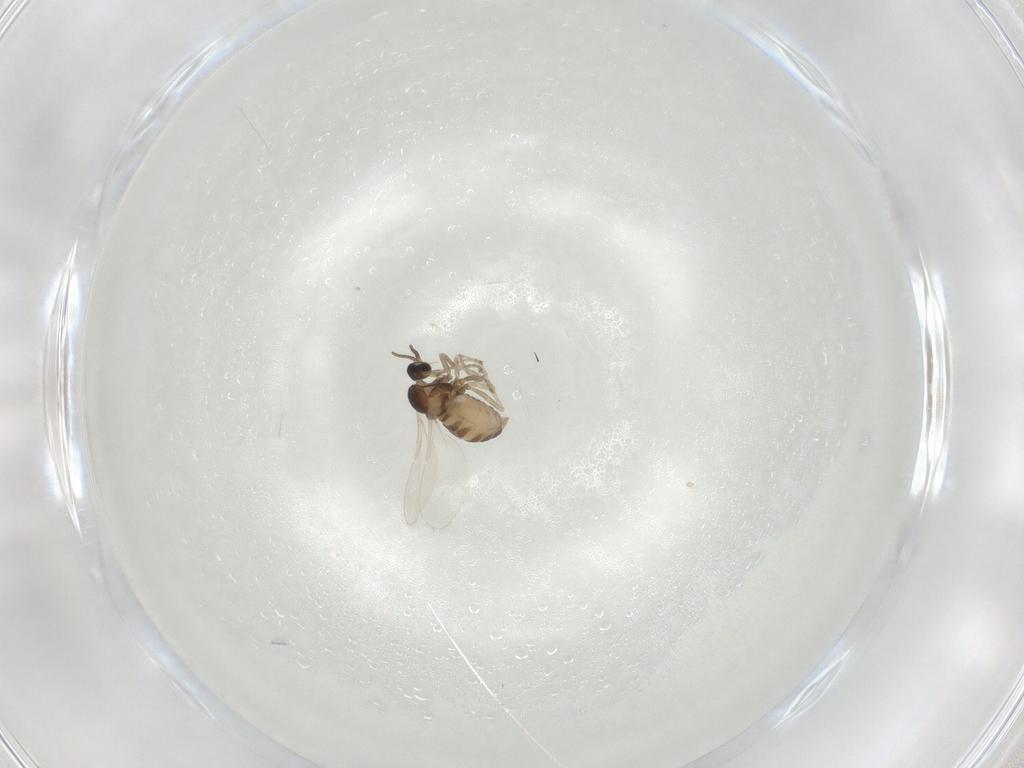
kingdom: Animalia
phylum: Arthropoda
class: Insecta
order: Diptera
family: Cecidomyiidae
